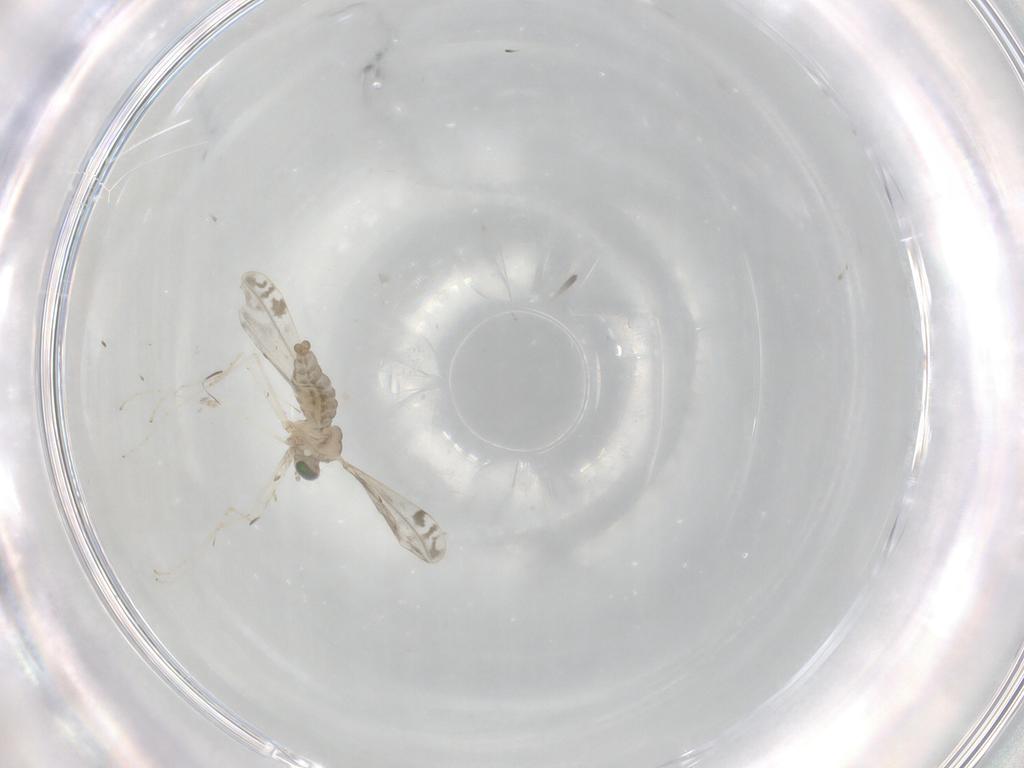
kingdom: Animalia
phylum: Arthropoda
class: Insecta
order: Diptera
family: Cecidomyiidae
